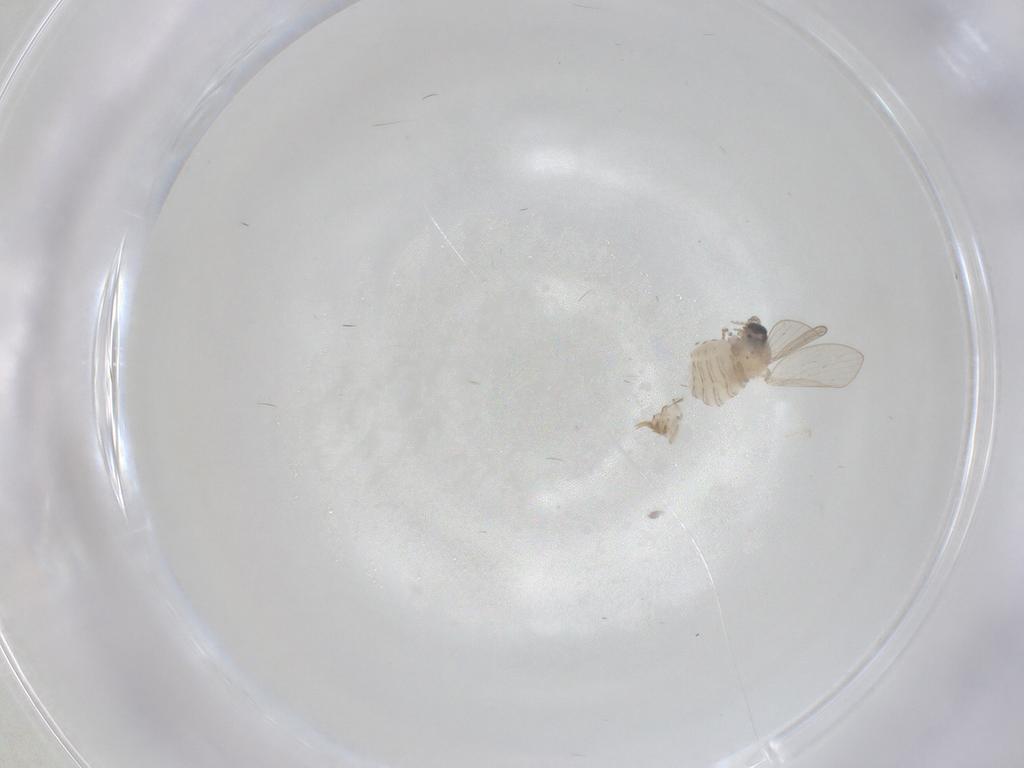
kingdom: Animalia
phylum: Arthropoda
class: Insecta
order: Diptera
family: Psychodidae
